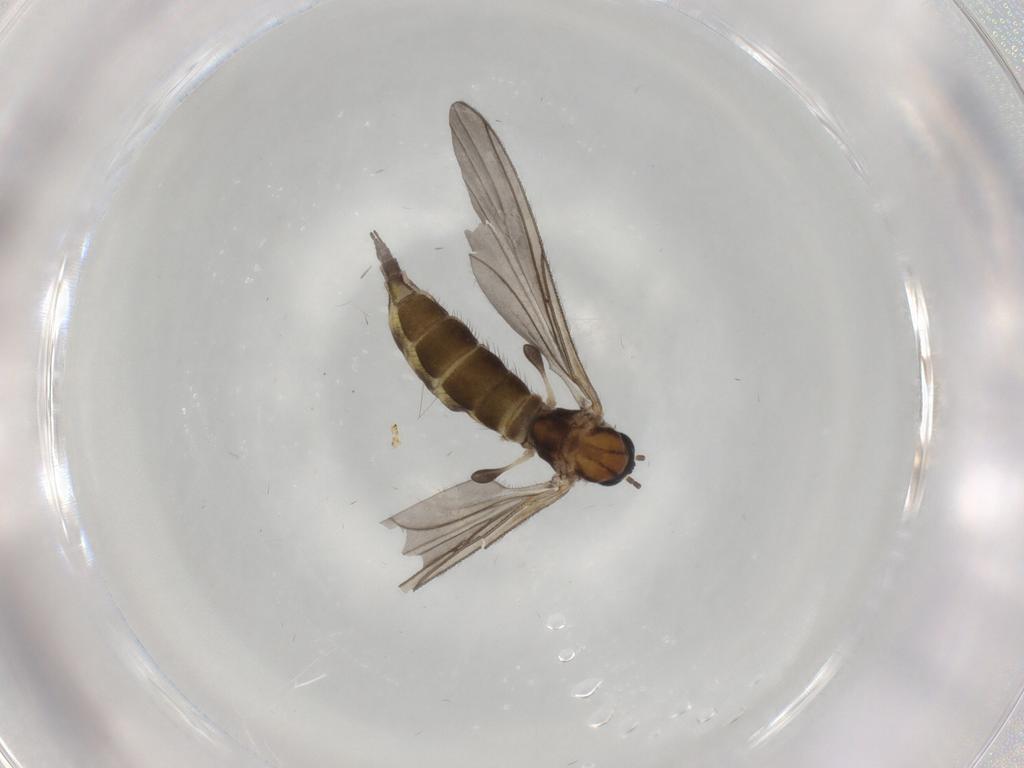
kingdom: Animalia
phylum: Arthropoda
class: Insecta
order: Diptera
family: Sciaridae
